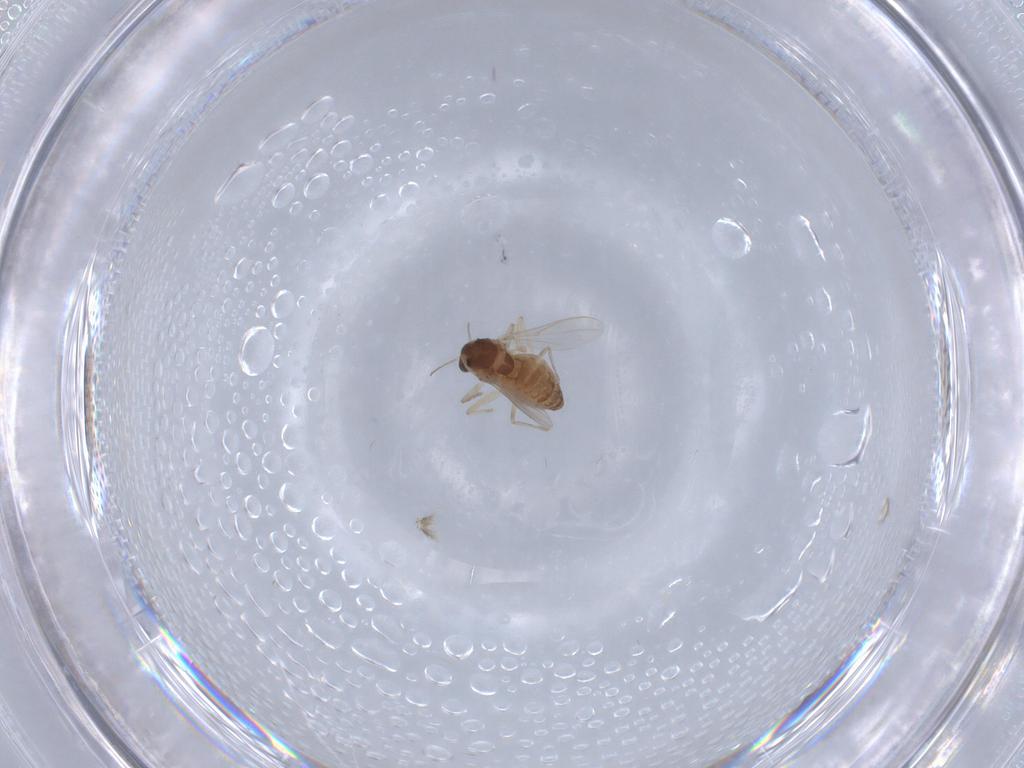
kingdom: Animalia
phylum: Arthropoda
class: Insecta
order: Diptera
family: Chironomidae
